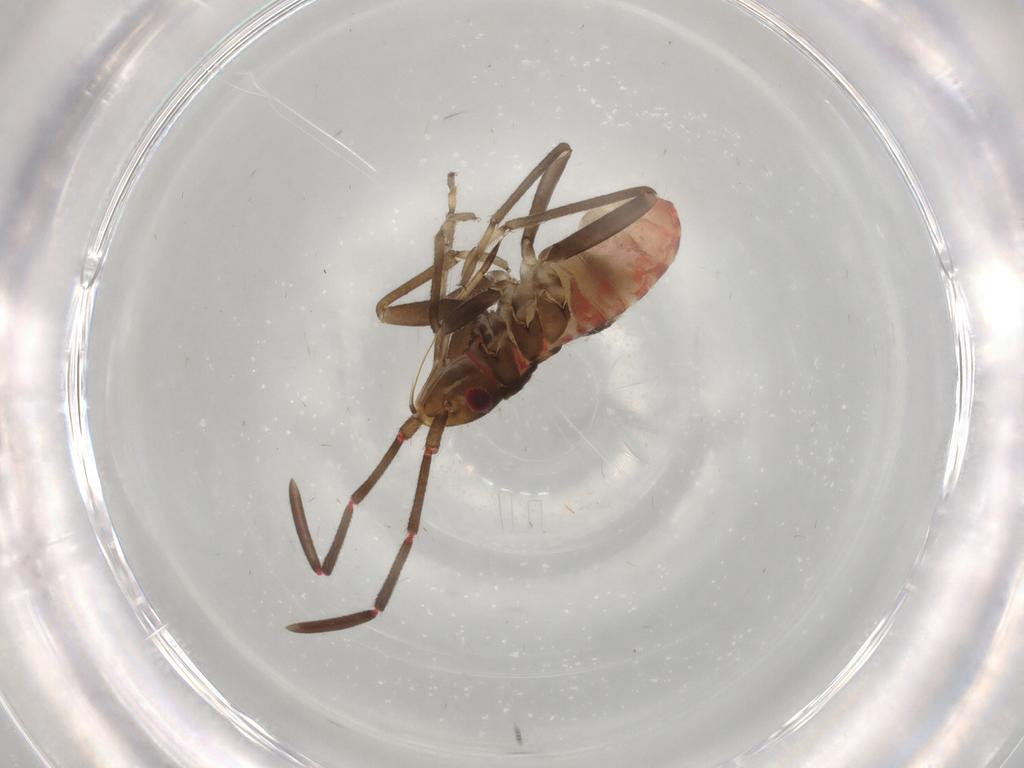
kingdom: Animalia
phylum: Arthropoda
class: Insecta
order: Hemiptera
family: Rhyparochromidae
